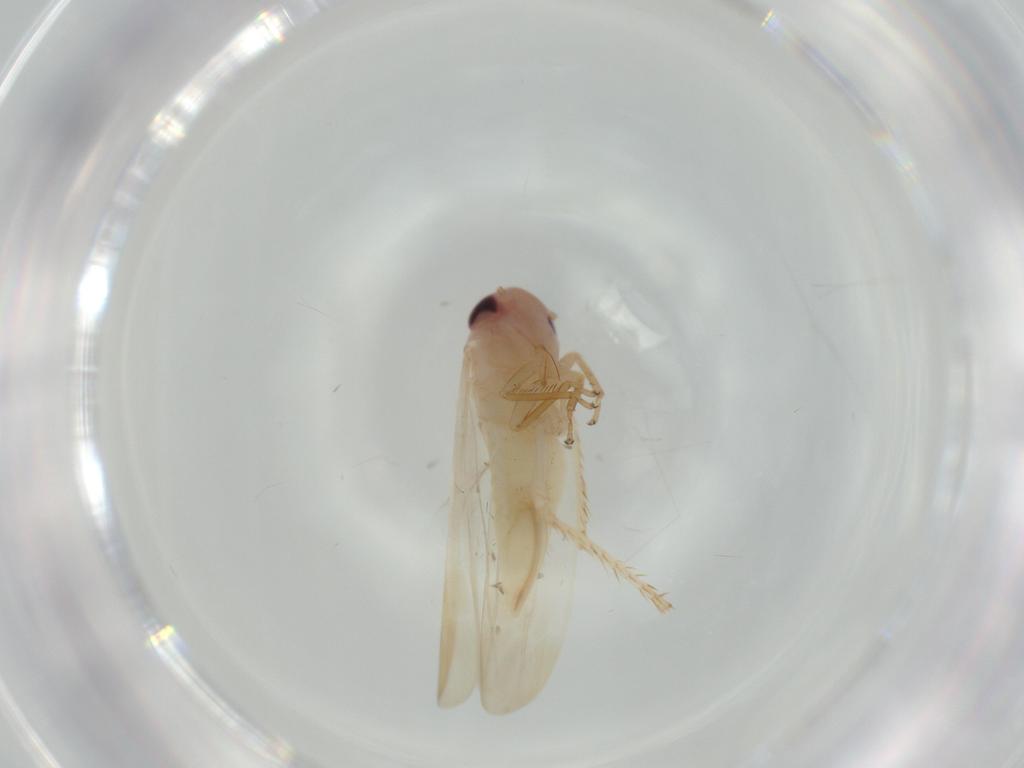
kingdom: Animalia
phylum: Arthropoda
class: Insecta
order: Hemiptera
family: Cicadellidae
